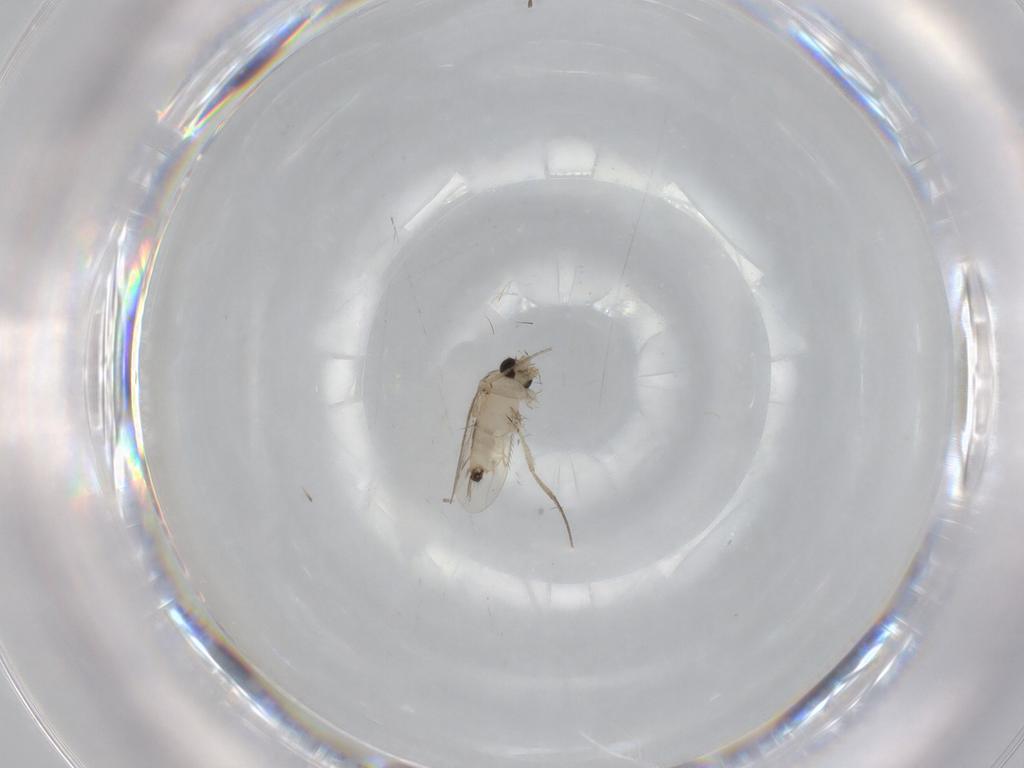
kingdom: Animalia
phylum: Arthropoda
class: Insecta
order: Diptera
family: Phoridae
